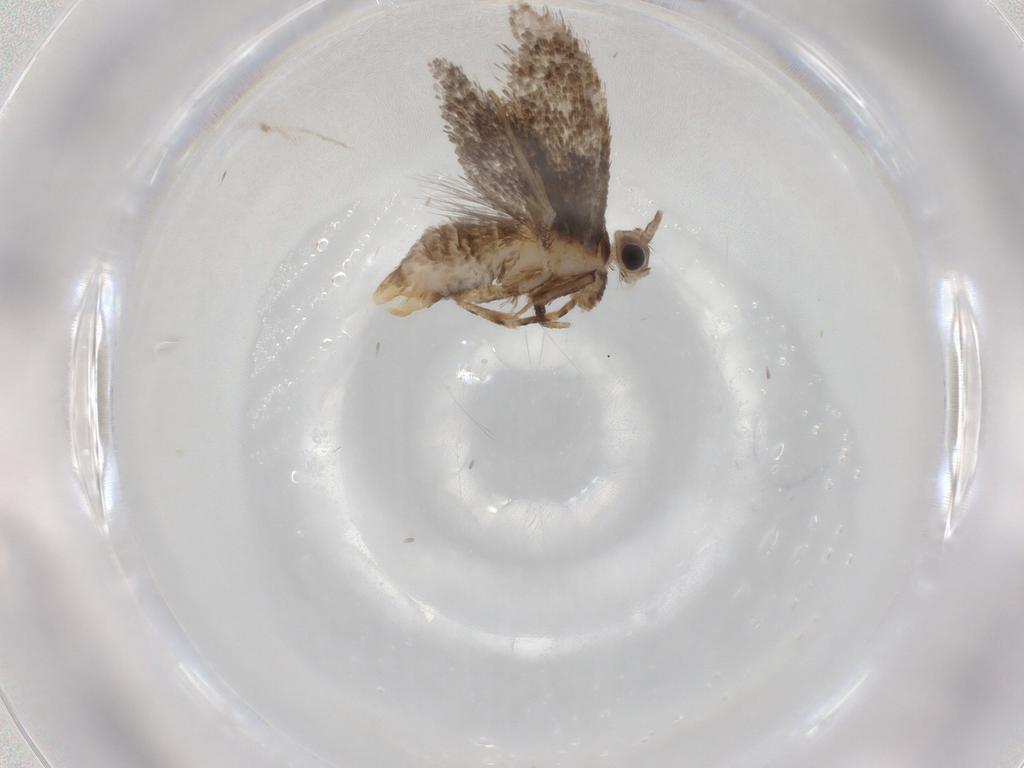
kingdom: Animalia
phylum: Arthropoda
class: Insecta
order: Lepidoptera
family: Tineidae
